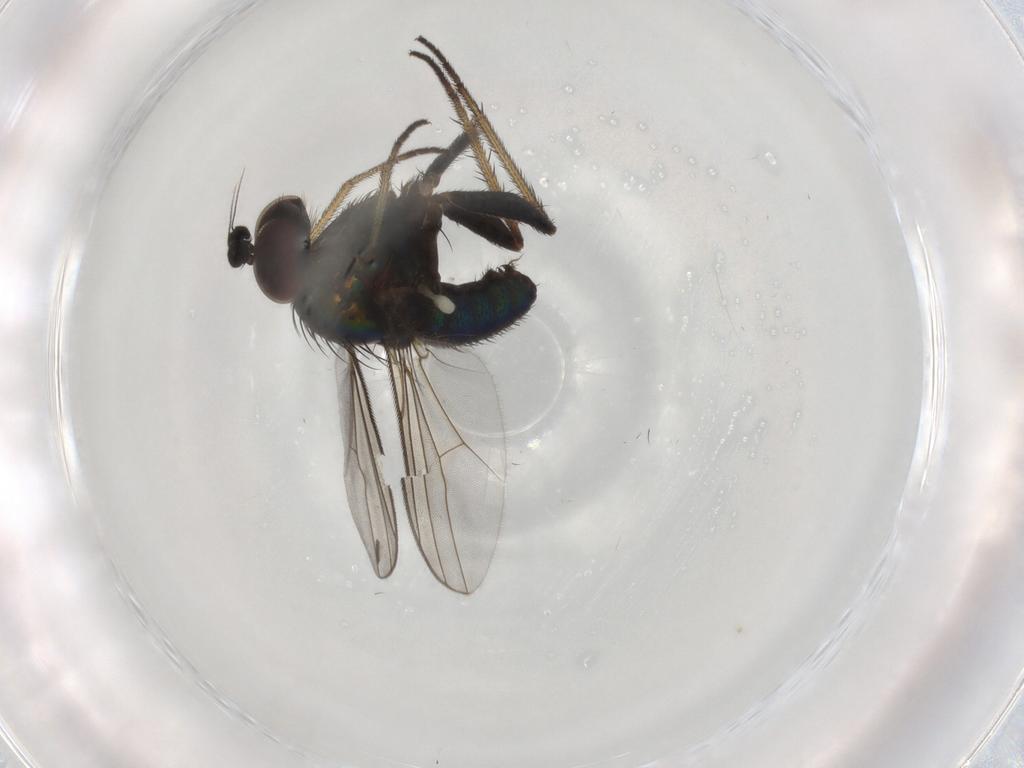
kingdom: Animalia
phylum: Arthropoda
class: Insecta
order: Diptera
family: Dolichopodidae
